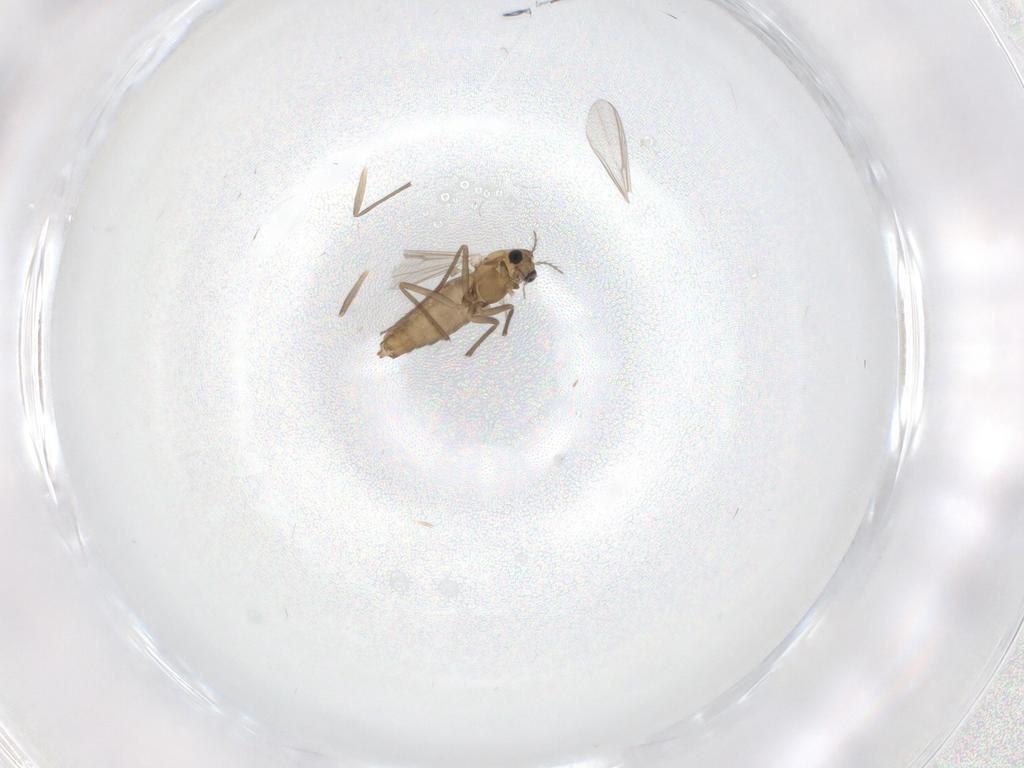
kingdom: Animalia
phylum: Arthropoda
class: Insecta
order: Diptera
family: Chironomidae
